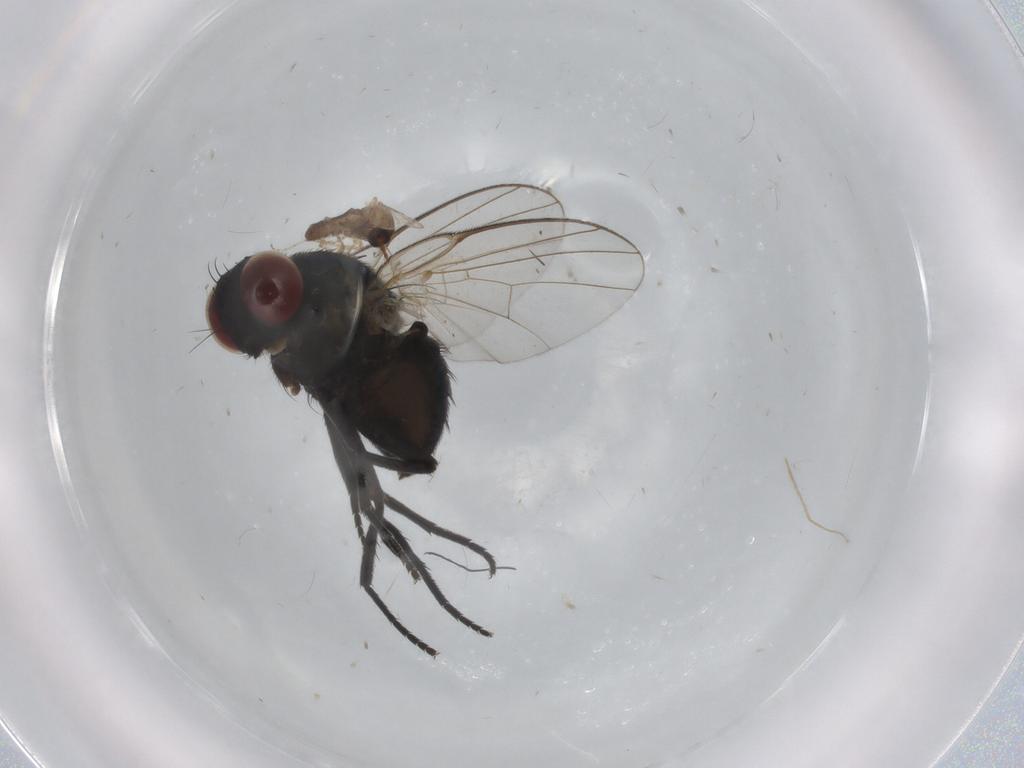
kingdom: Animalia
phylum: Arthropoda
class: Insecta
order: Diptera
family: Ceratopogonidae
